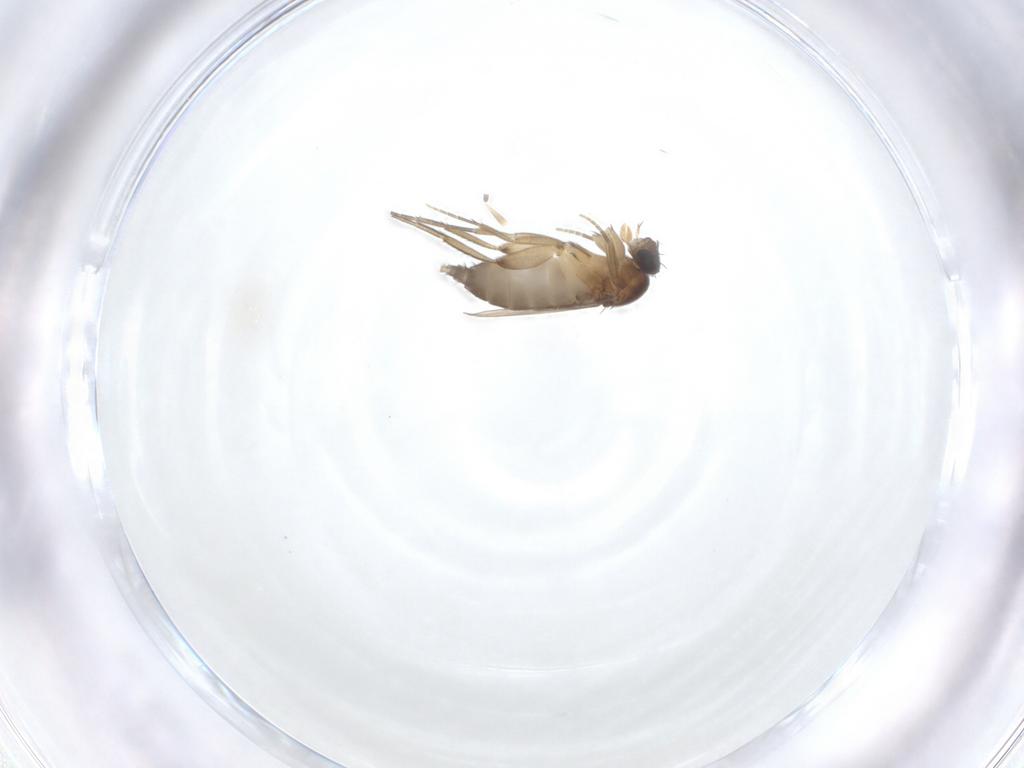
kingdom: Animalia
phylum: Arthropoda
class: Insecta
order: Diptera
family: Phoridae
